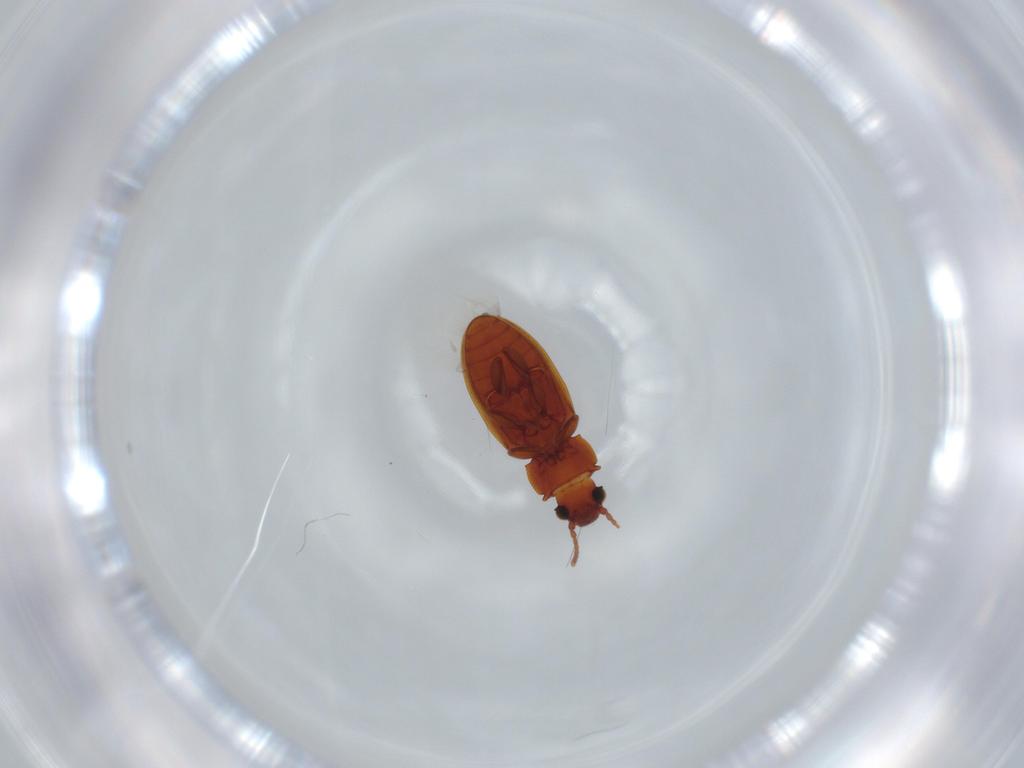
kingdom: Animalia
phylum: Arthropoda
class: Insecta
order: Coleoptera
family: Silvanidae
